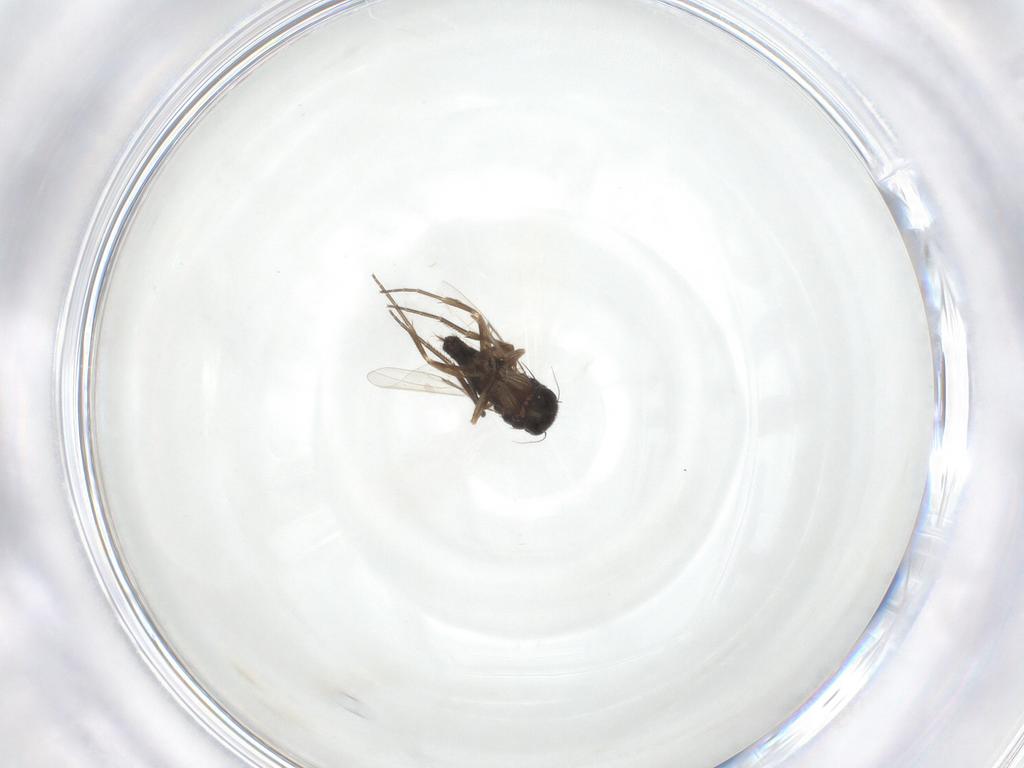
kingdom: Animalia
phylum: Arthropoda
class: Insecta
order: Diptera
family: Phoridae
